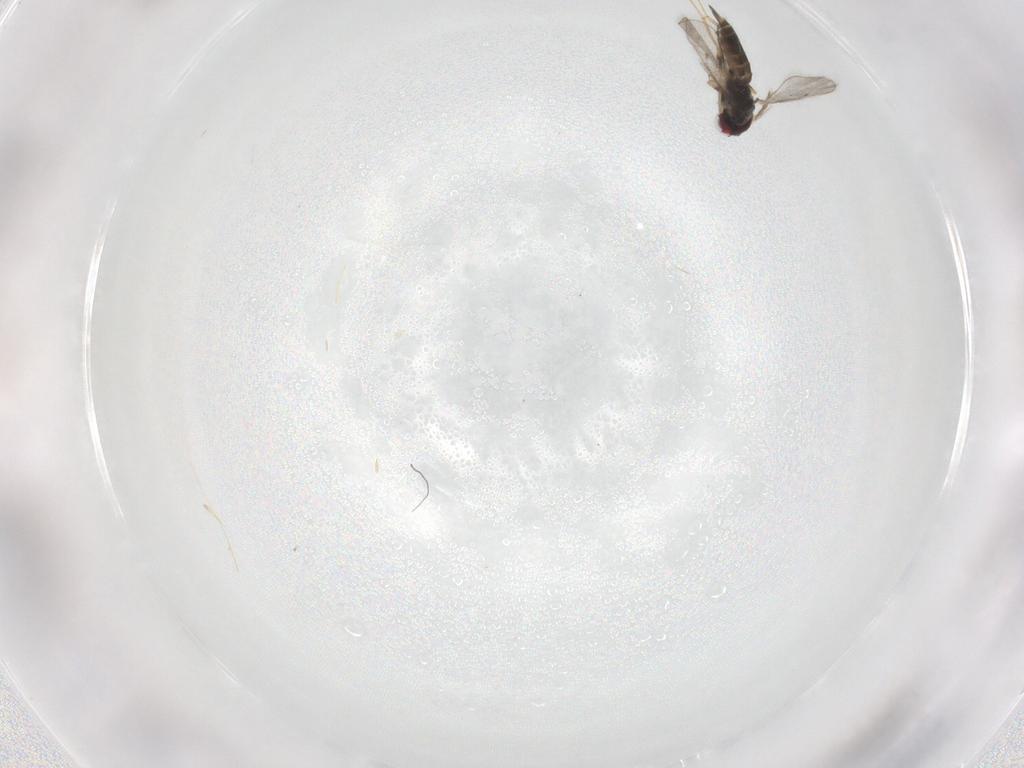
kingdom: Animalia
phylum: Arthropoda
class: Insecta
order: Hymenoptera
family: Eulophidae
